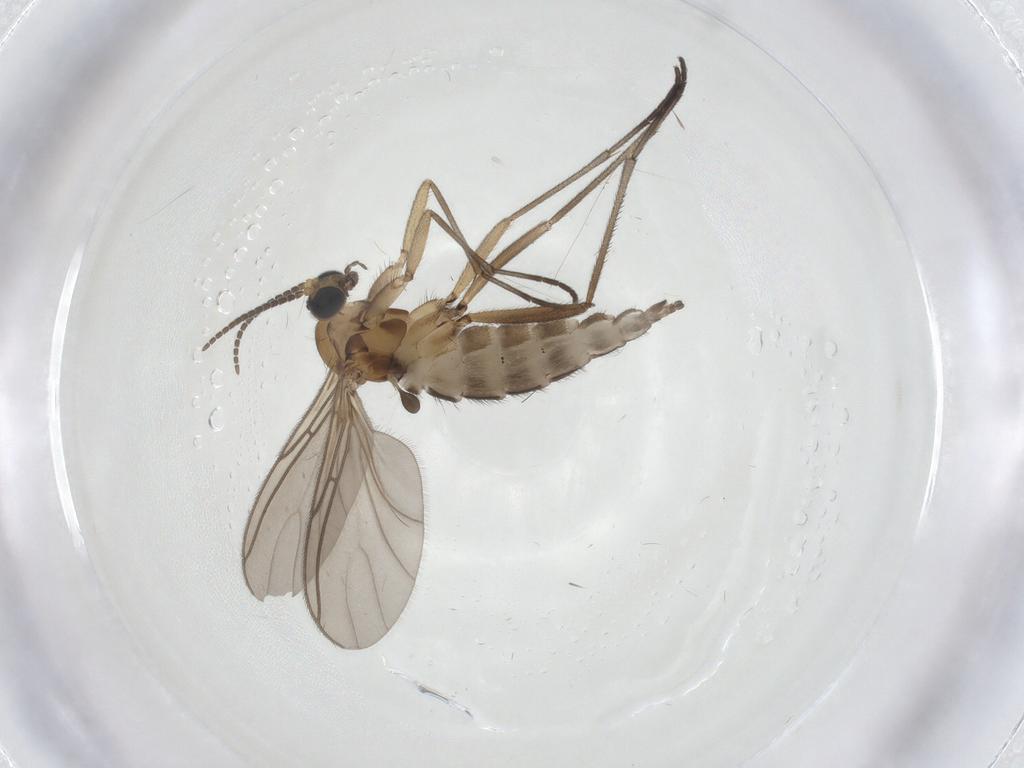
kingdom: Animalia
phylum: Arthropoda
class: Insecta
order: Diptera
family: Sciaridae
